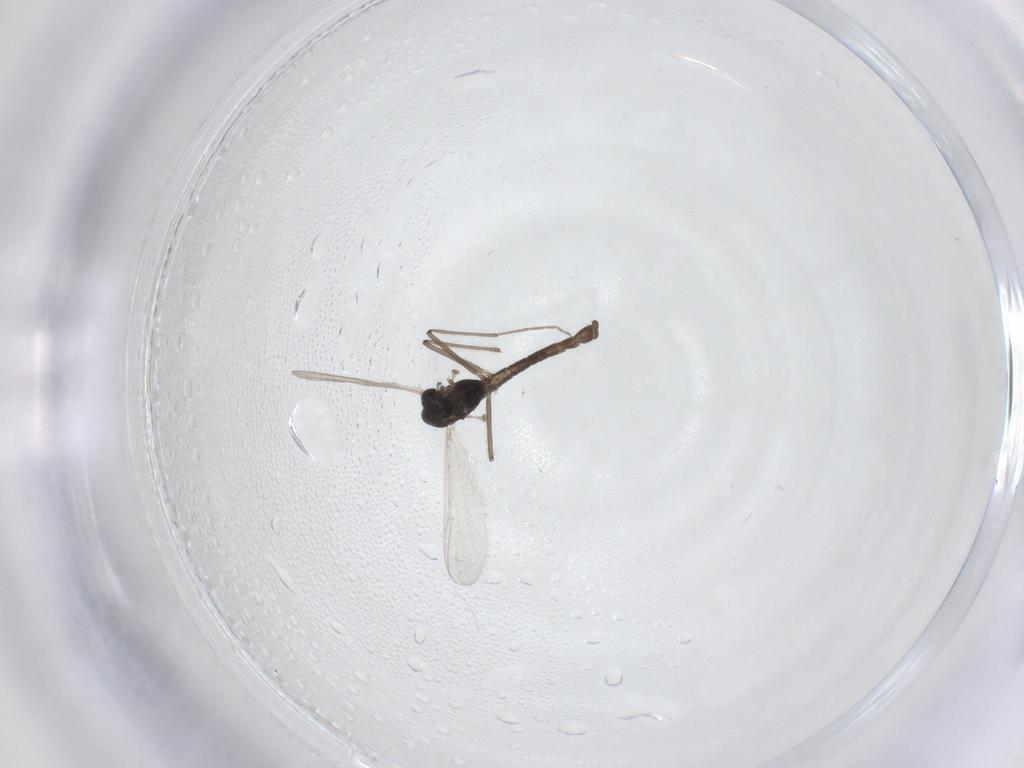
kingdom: Animalia
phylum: Arthropoda
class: Insecta
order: Diptera
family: Chironomidae
